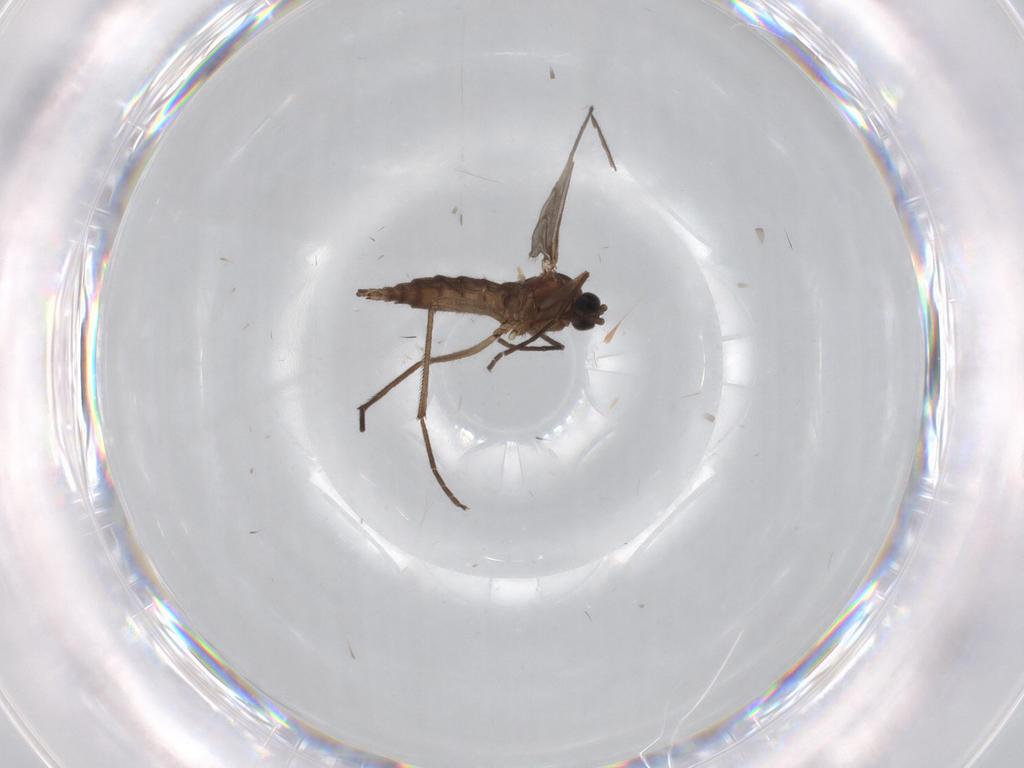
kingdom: Animalia
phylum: Arthropoda
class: Insecta
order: Diptera
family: Sciaridae
